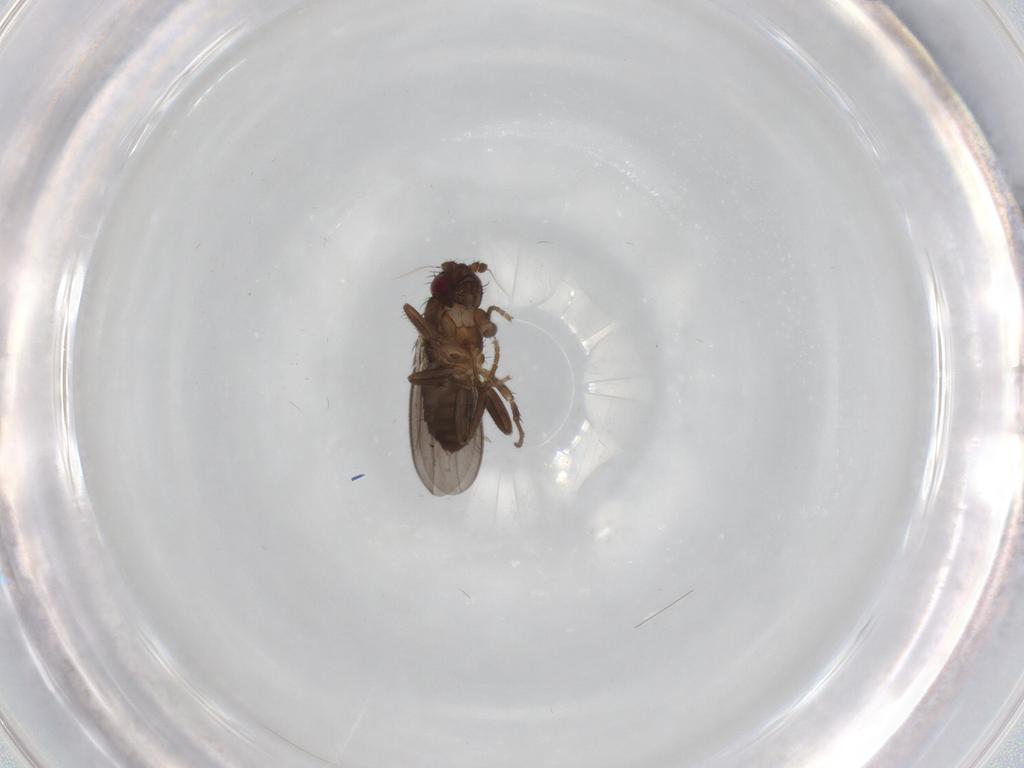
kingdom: Animalia
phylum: Arthropoda
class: Insecta
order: Diptera
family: Sphaeroceridae
